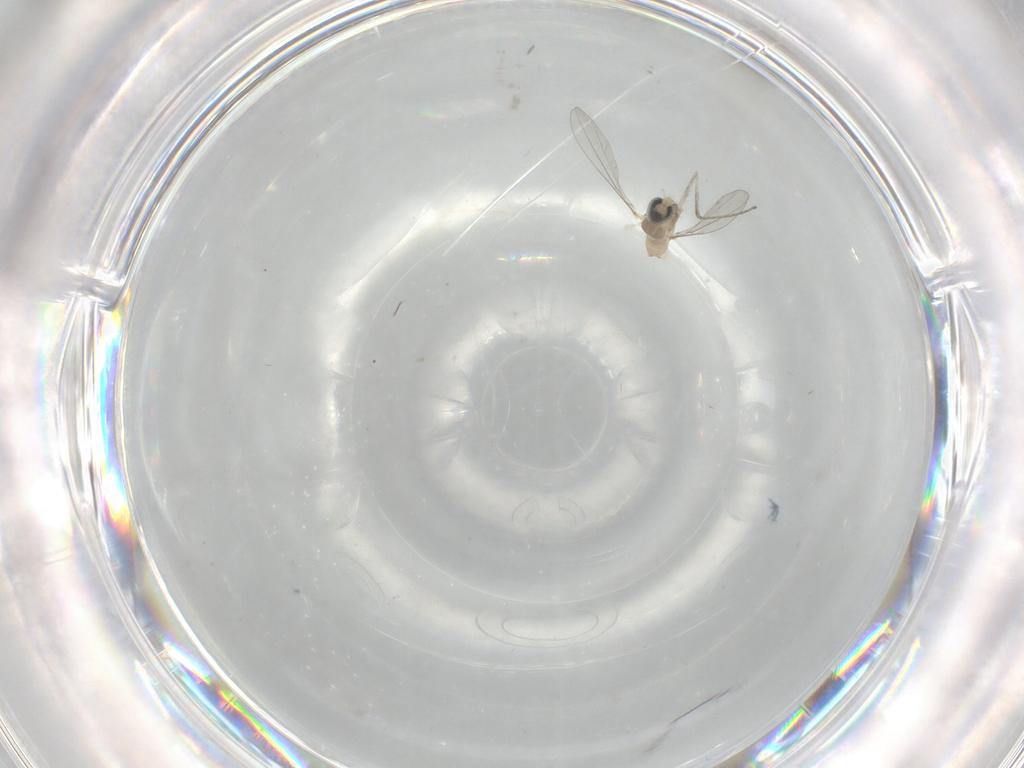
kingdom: Animalia
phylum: Arthropoda
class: Insecta
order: Diptera
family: Cecidomyiidae
